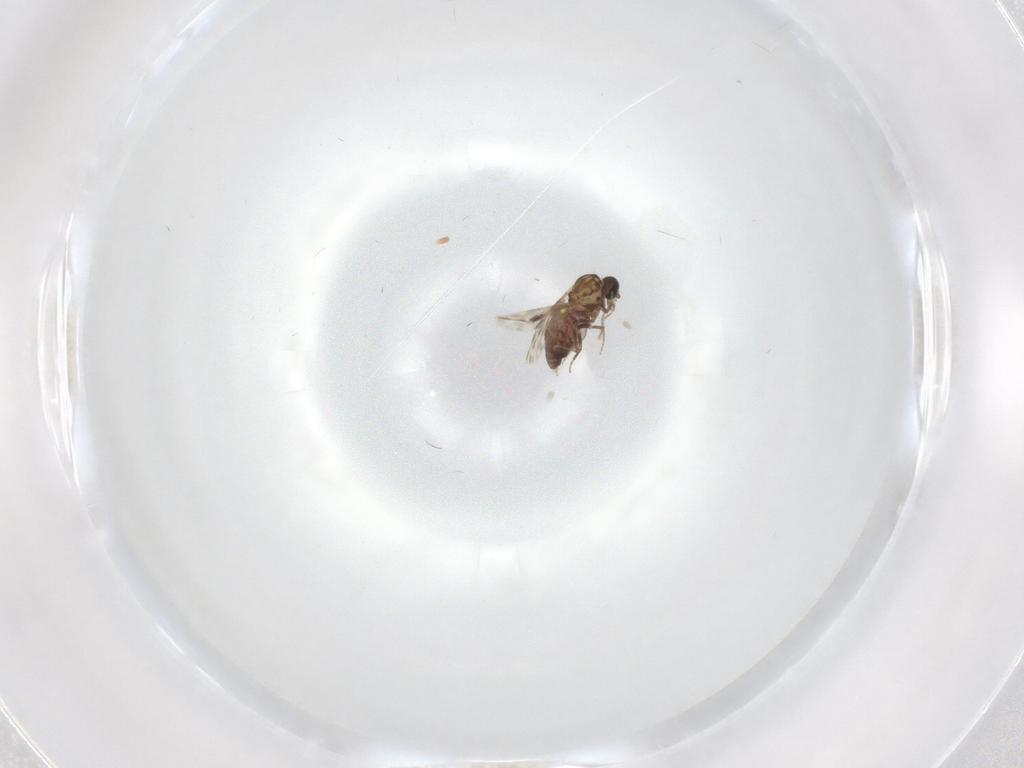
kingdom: Animalia
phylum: Arthropoda
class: Insecta
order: Diptera
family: Ceratopogonidae
